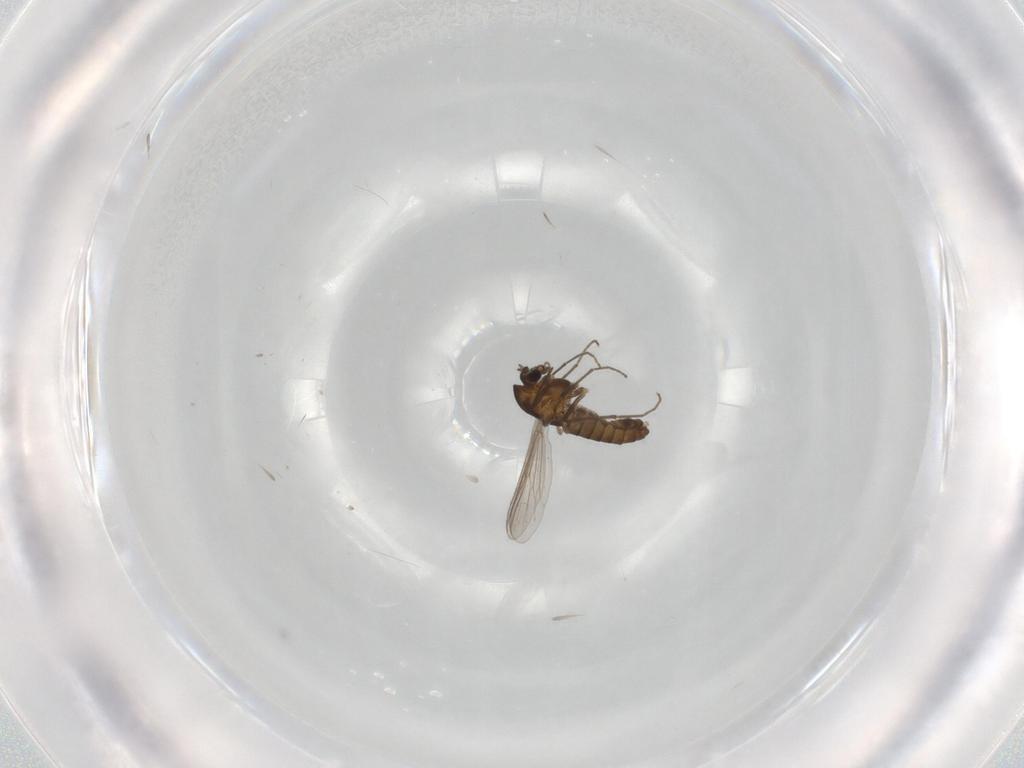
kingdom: Animalia
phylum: Arthropoda
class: Insecta
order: Diptera
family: Chironomidae
